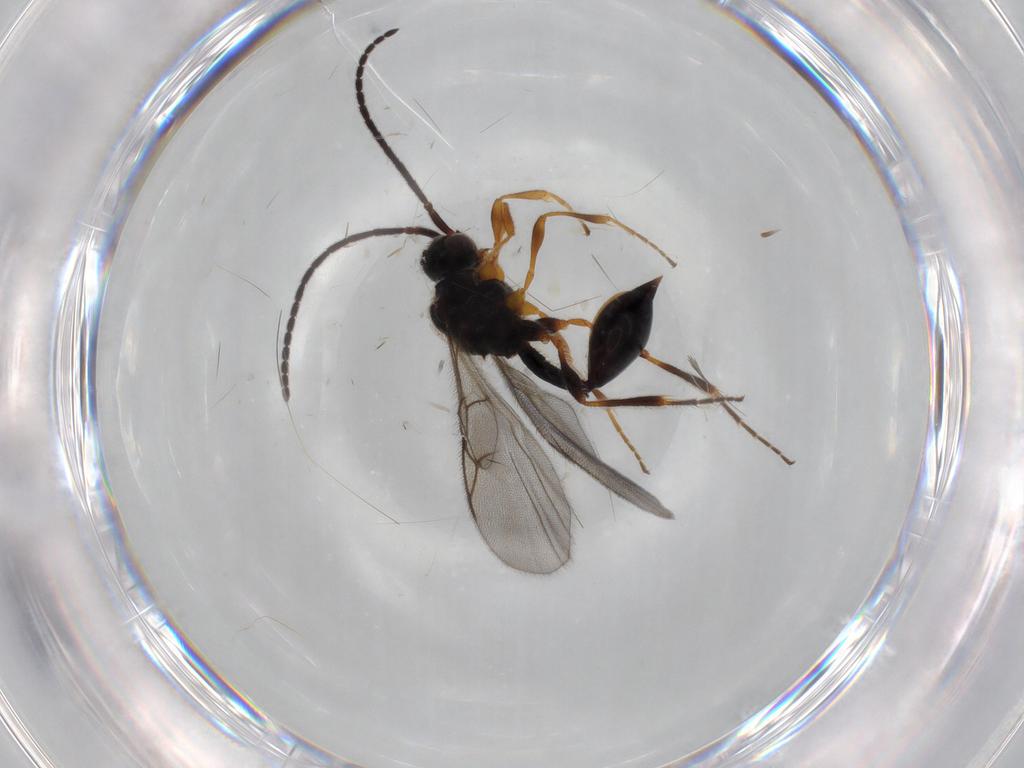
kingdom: Animalia
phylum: Arthropoda
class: Insecta
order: Hymenoptera
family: Diapriidae
